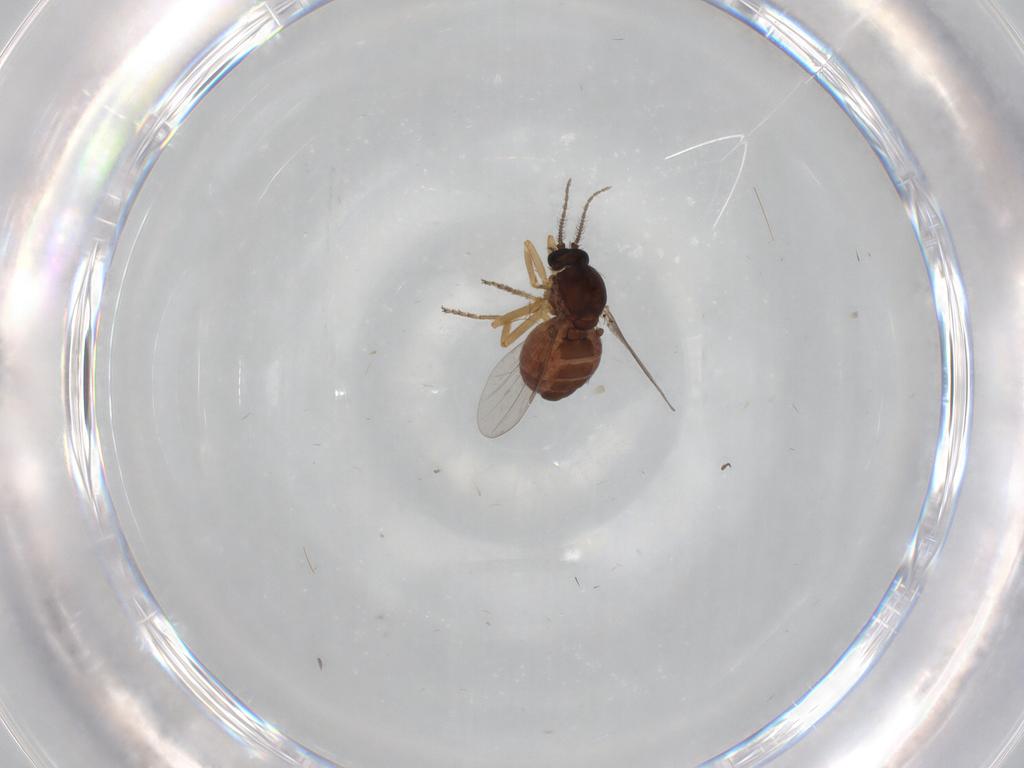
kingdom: Animalia
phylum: Arthropoda
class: Insecta
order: Diptera
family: Ceratopogonidae
